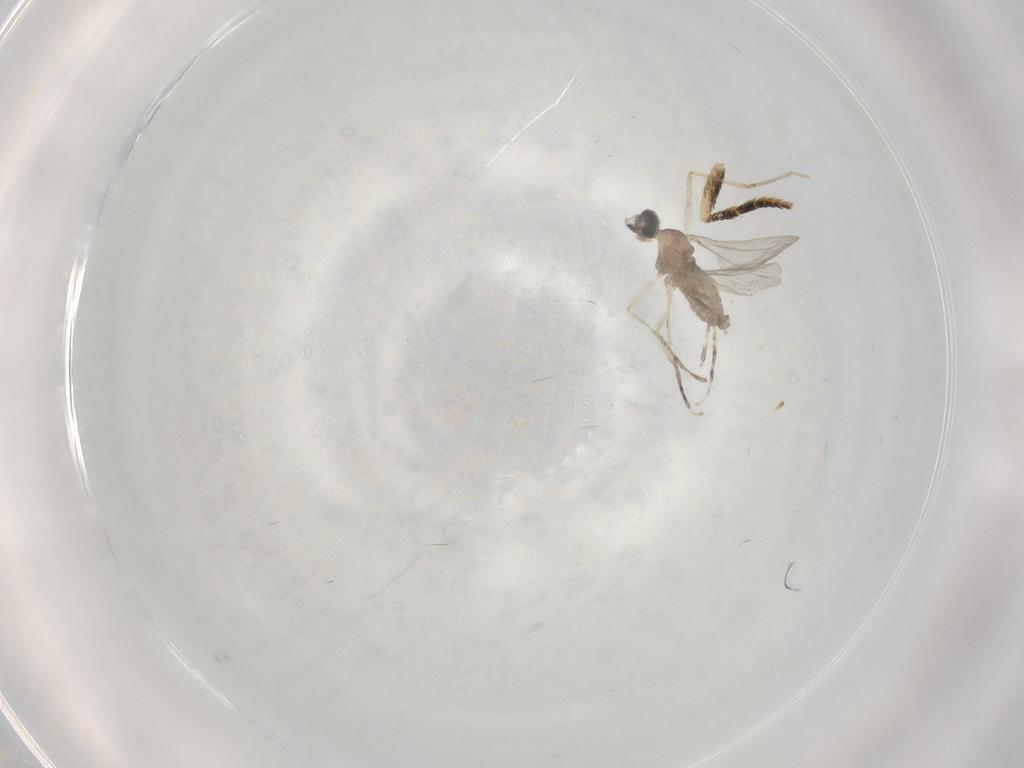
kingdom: Animalia
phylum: Arthropoda
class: Insecta
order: Diptera
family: Cecidomyiidae
